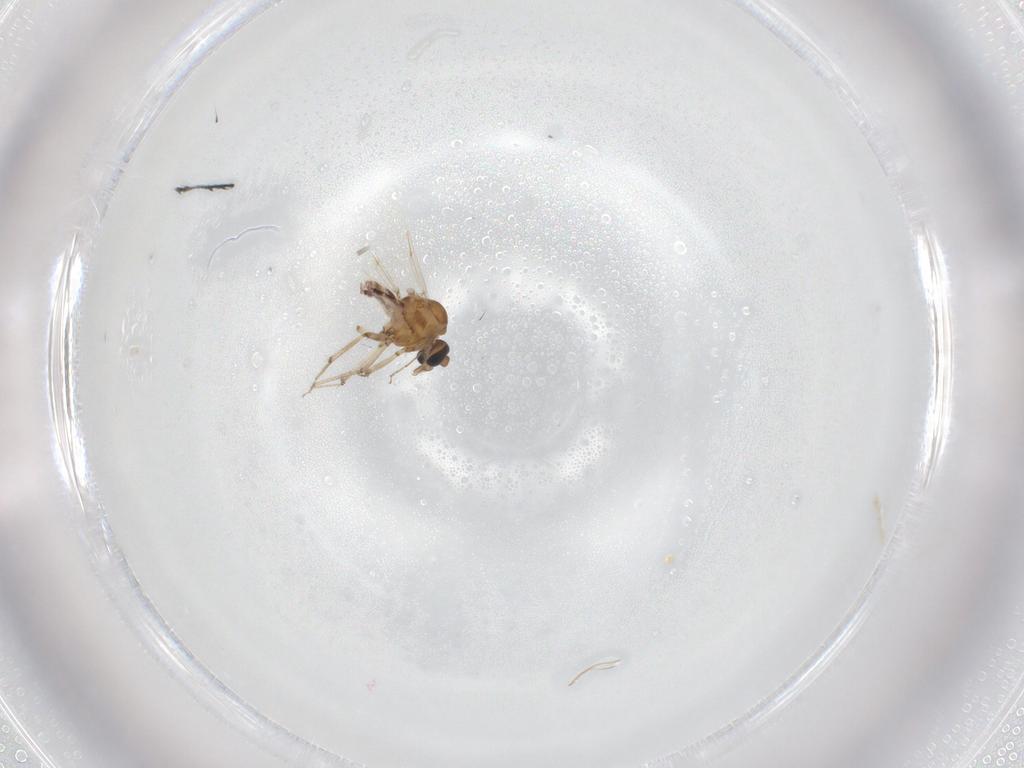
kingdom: Animalia
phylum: Arthropoda
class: Insecta
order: Diptera
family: Ceratopogonidae
